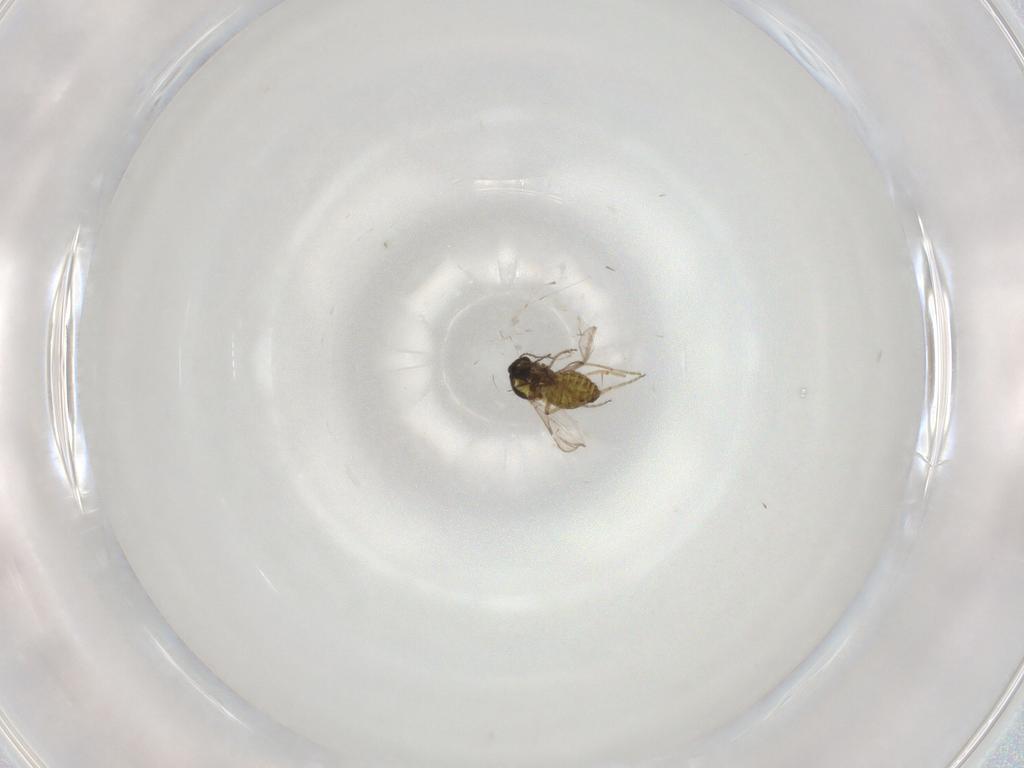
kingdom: Animalia
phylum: Arthropoda
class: Insecta
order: Diptera
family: Ceratopogonidae
